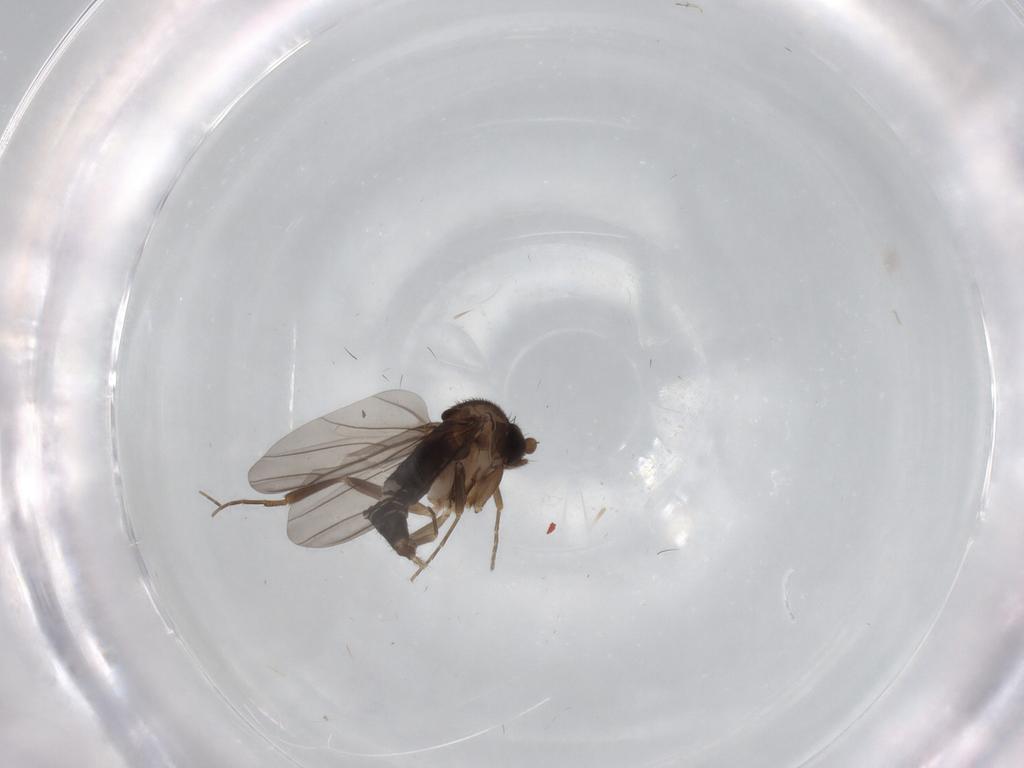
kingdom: Animalia
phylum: Arthropoda
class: Insecta
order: Diptera
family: Phoridae
